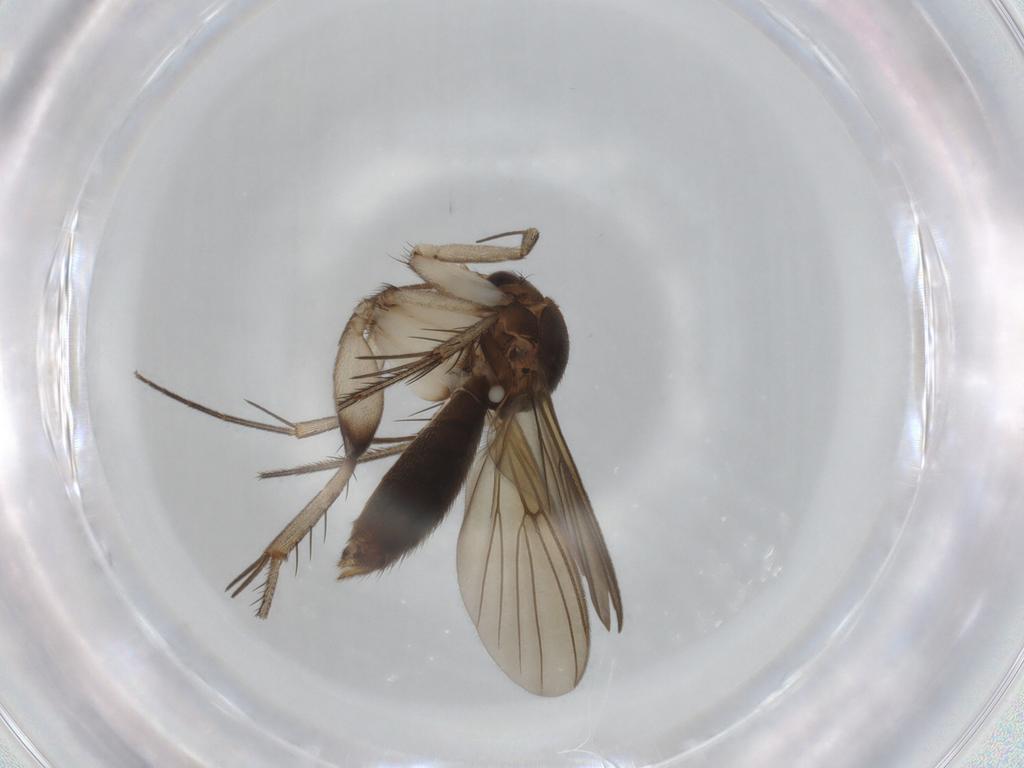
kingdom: Animalia
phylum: Arthropoda
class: Insecta
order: Diptera
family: Mycetophilidae
